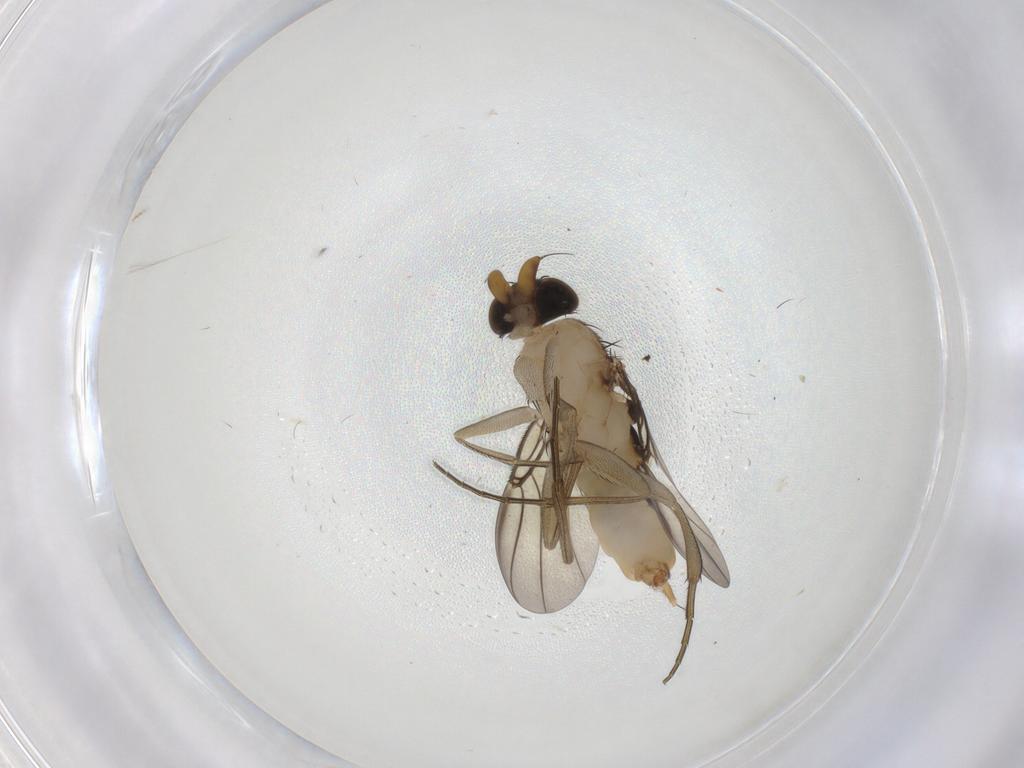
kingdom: Animalia
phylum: Arthropoda
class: Insecta
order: Diptera
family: Phoridae
